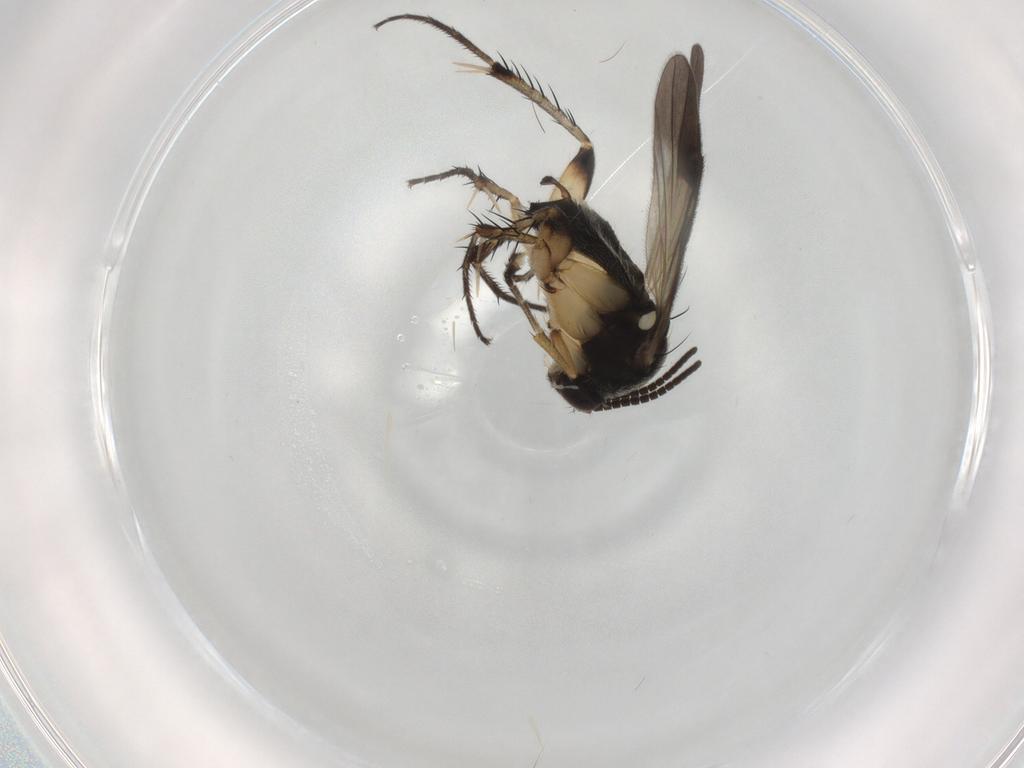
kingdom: Animalia
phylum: Arthropoda
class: Insecta
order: Diptera
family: Mycetophilidae
